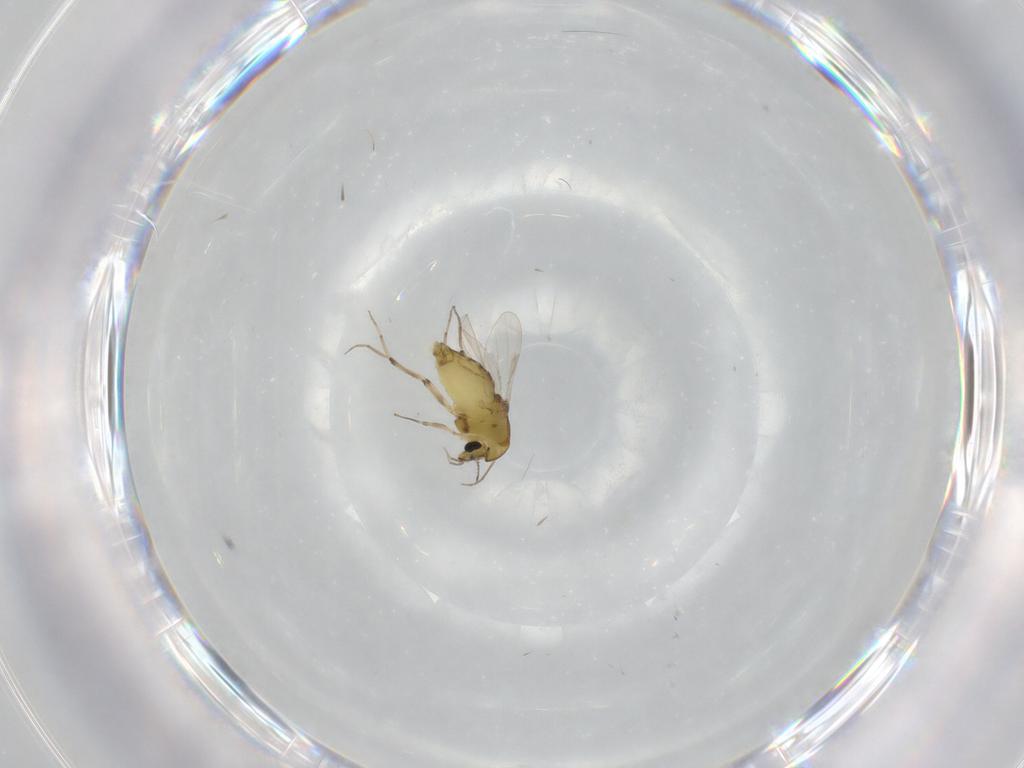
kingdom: Animalia
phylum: Arthropoda
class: Insecta
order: Diptera
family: Chironomidae
